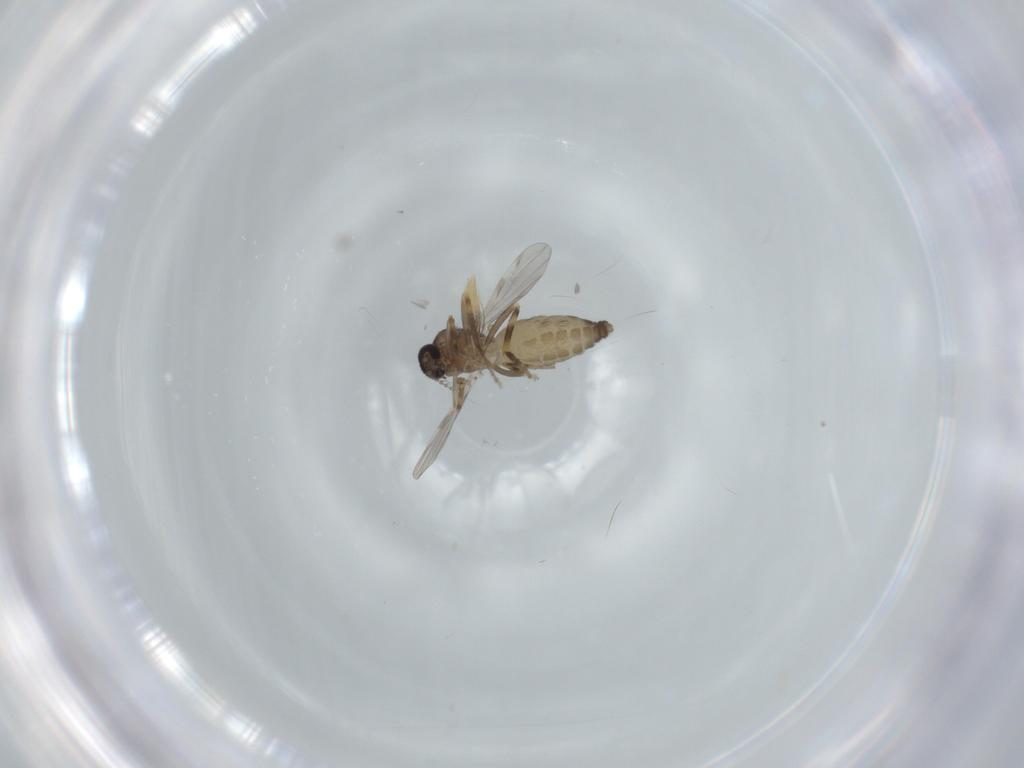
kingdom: Animalia
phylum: Arthropoda
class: Insecta
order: Diptera
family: Ceratopogonidae
